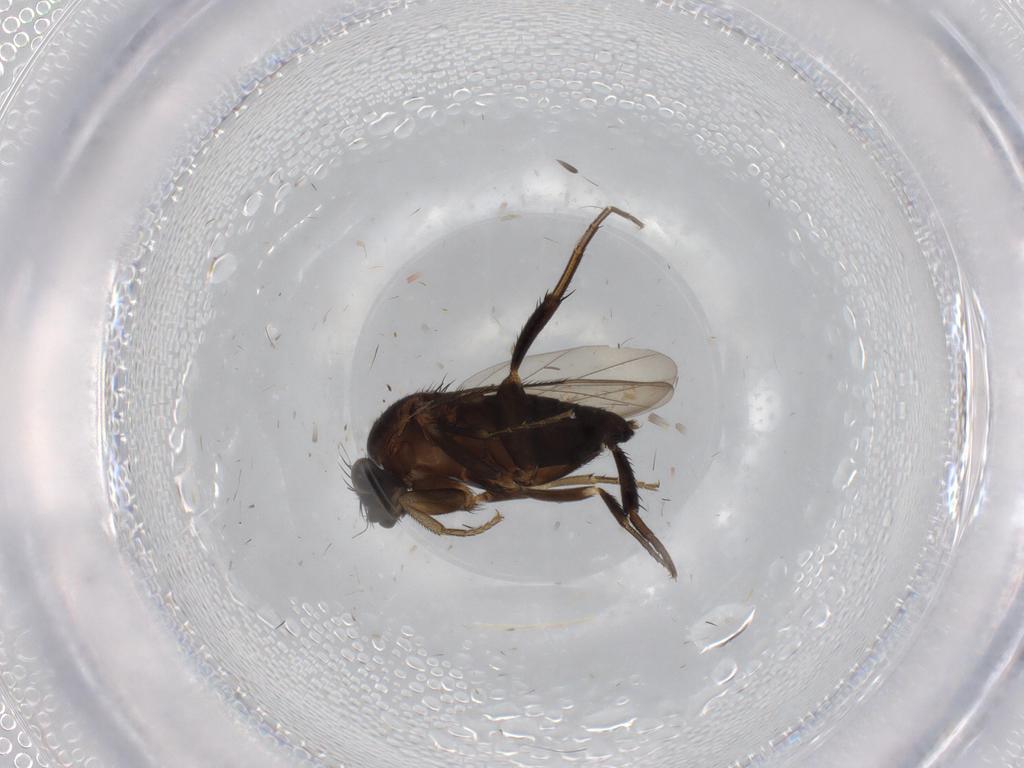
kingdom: Animalia
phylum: Arthropoda
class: Insecta
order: Diptera
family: Sciaridae
